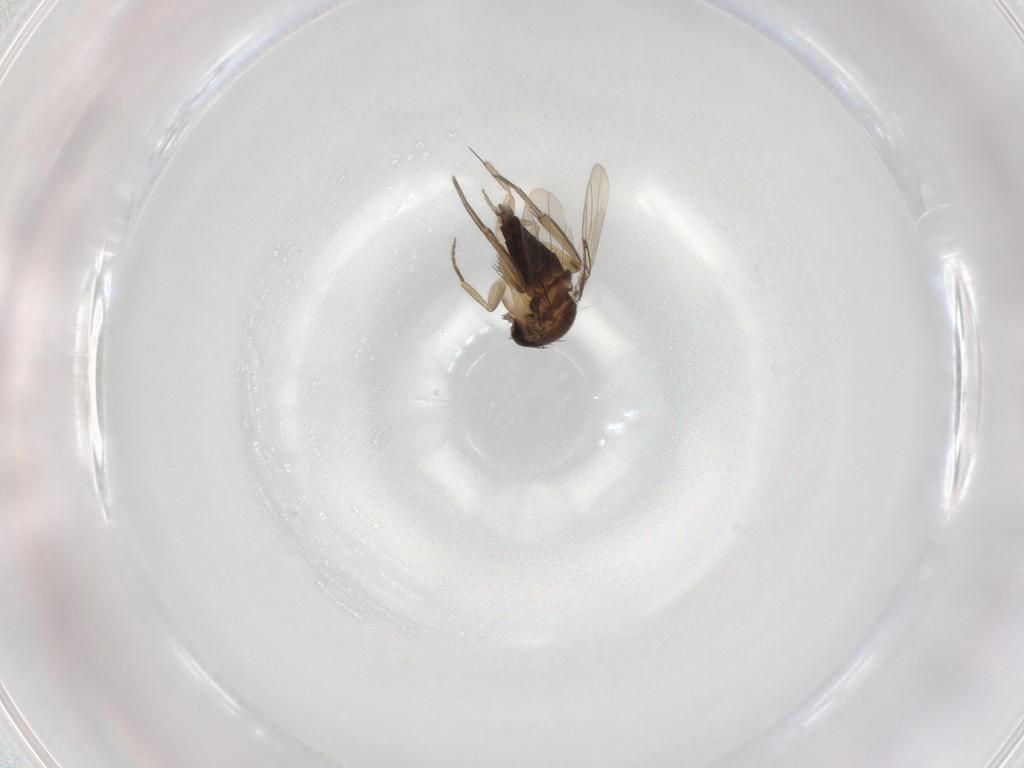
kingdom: Animalia
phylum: Arthropoda
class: Insecta
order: Diptera
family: Phoridae
